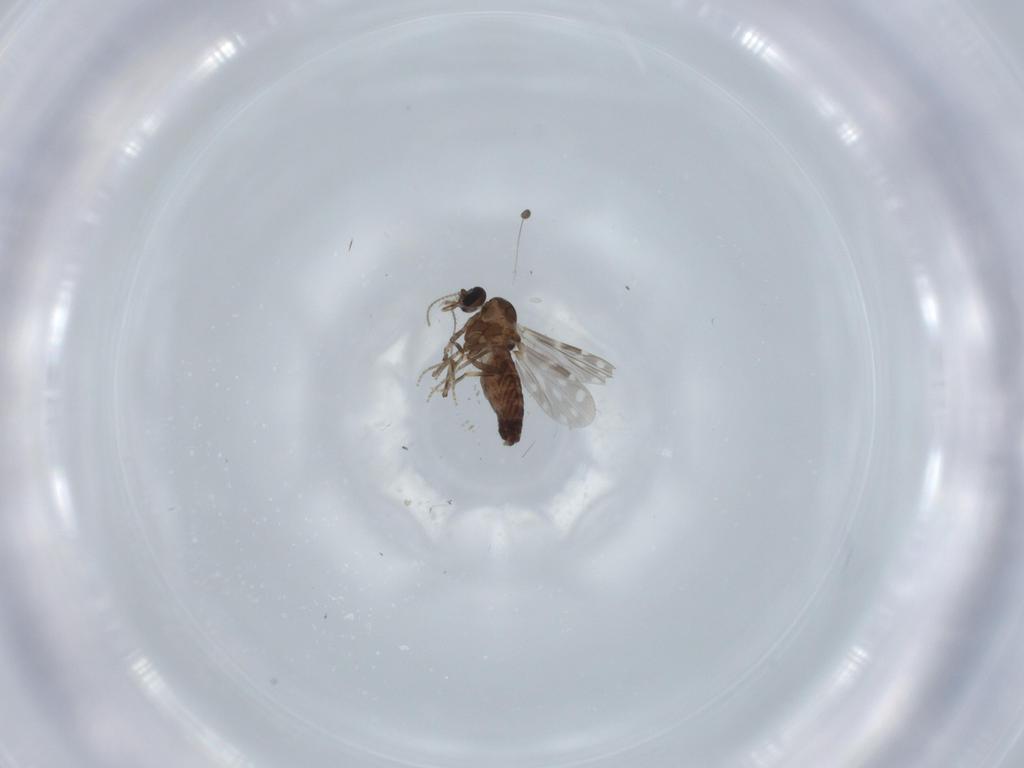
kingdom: Animalia
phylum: Arthropoda
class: Insecta
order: Diptera
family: Sphaeroceridae
